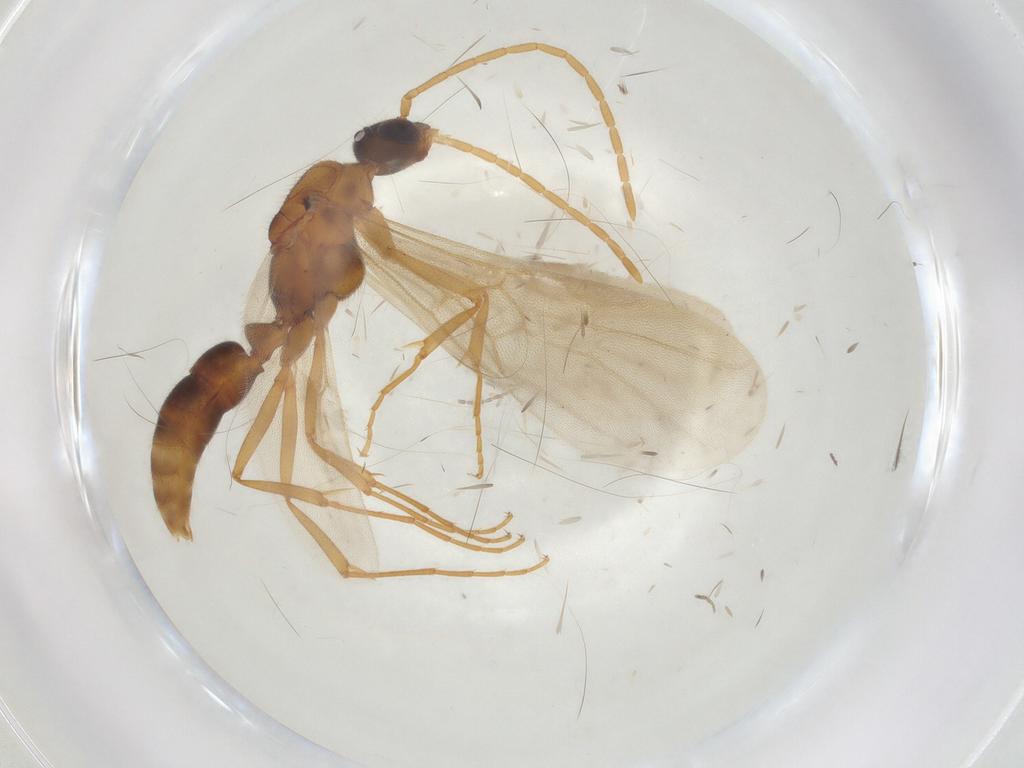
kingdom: Animalia
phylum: Arthropoda
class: Insecta
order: Hymenoptera
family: Formicidae
